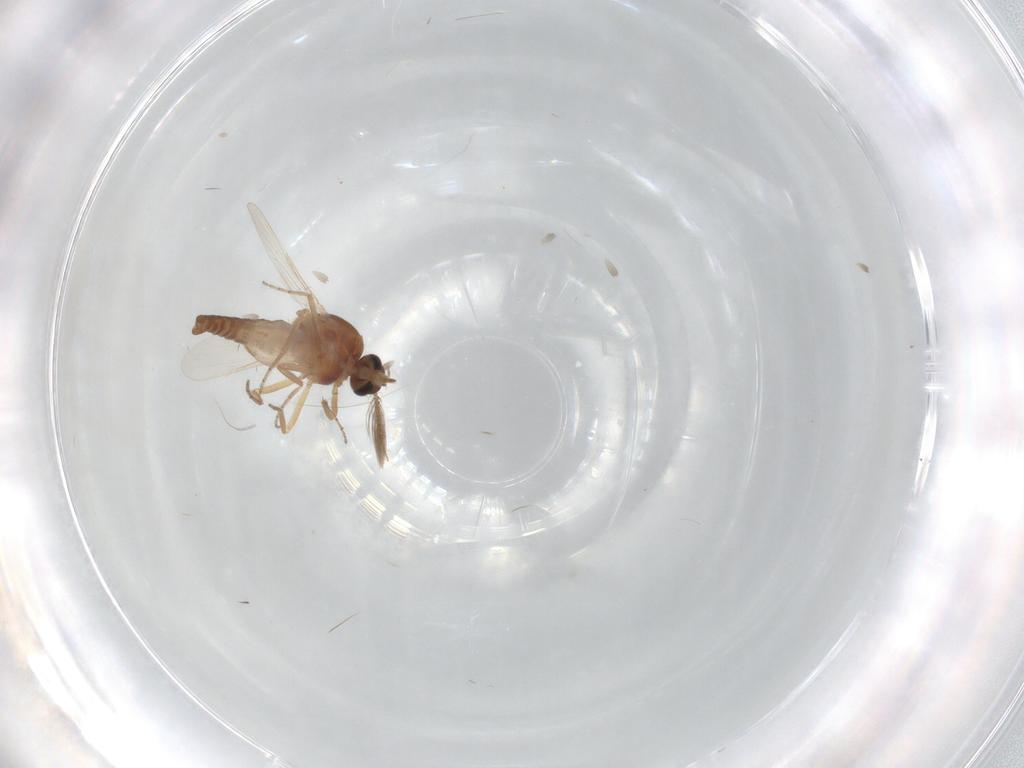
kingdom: Animalia
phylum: Arthropoda
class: Insecta
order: Diptera
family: Ceratopogonidae
